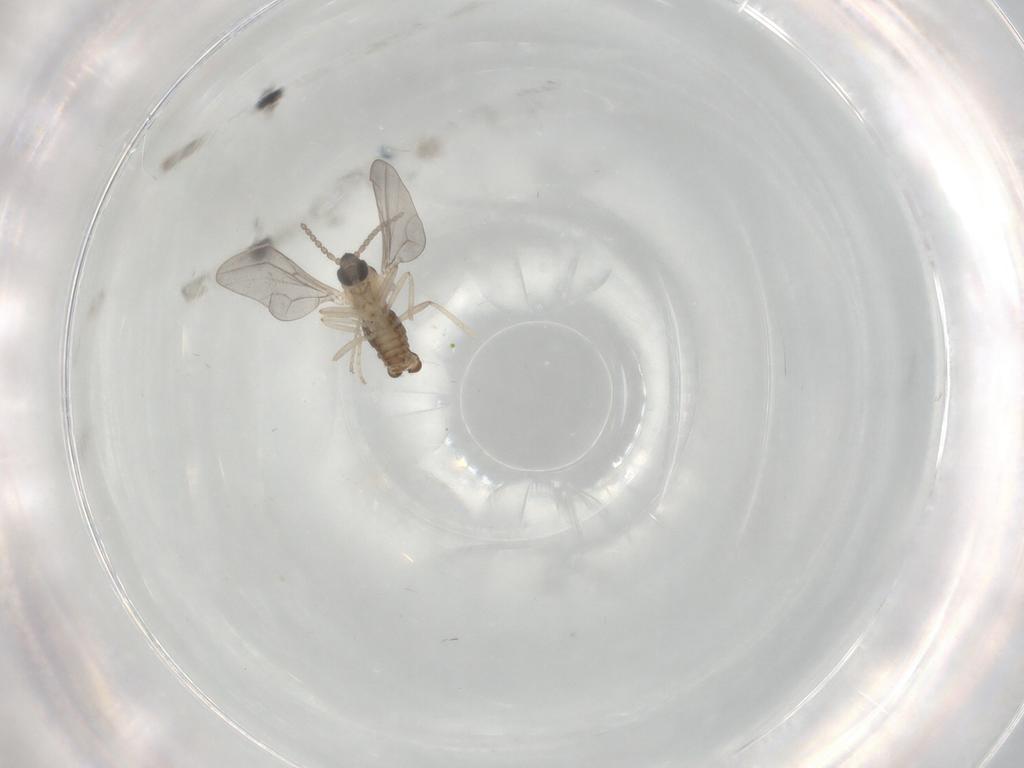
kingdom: Animalia
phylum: Arthropoda
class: Insecta
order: Diptera
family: Cecidomyiidae
